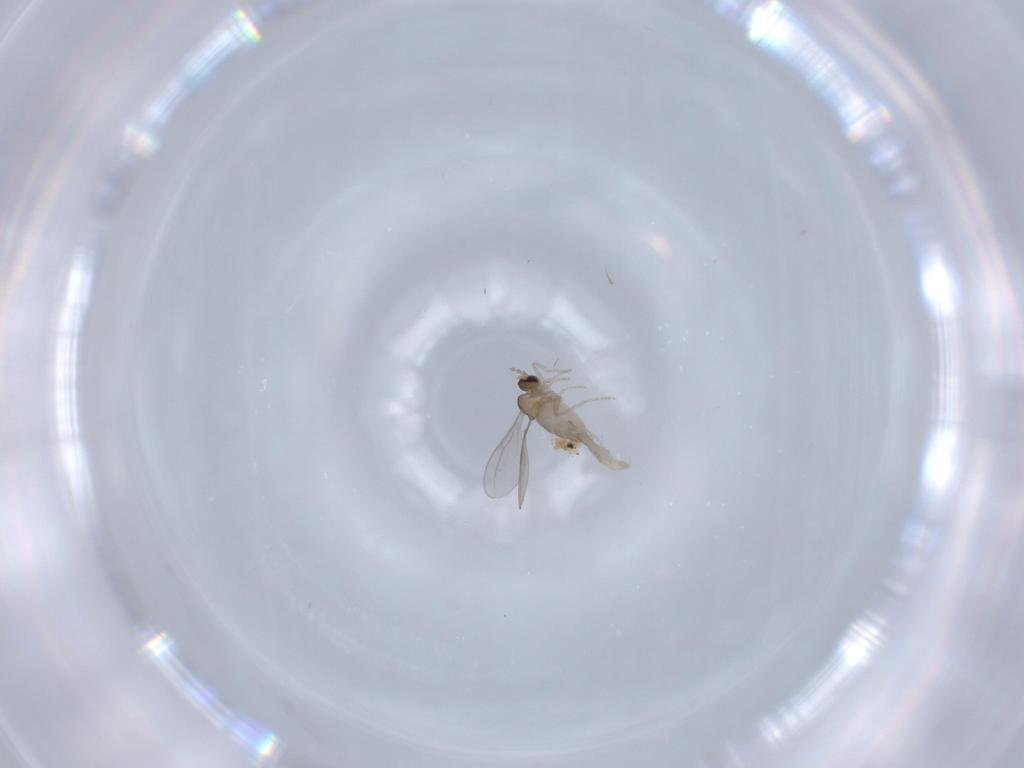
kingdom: Animalia
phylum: Arthropoda
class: Insecta
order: Diptera
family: Cecidomyiidae
